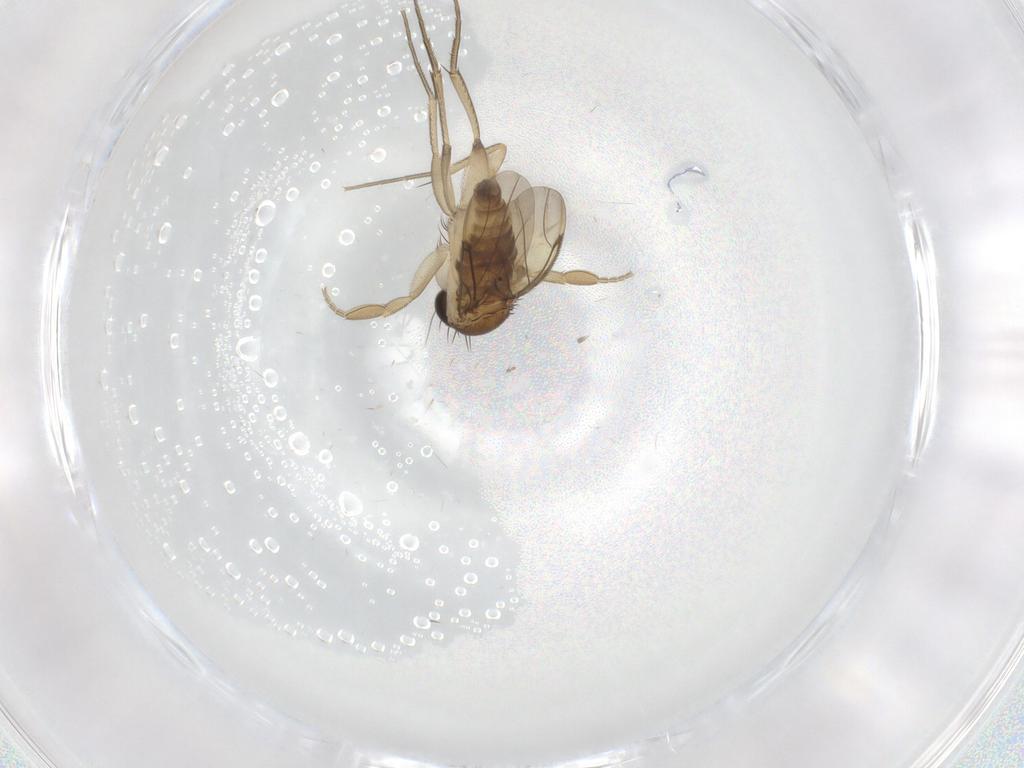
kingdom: Animalia
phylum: Arthropoda
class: Insecta
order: Diptera
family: Phoridae
